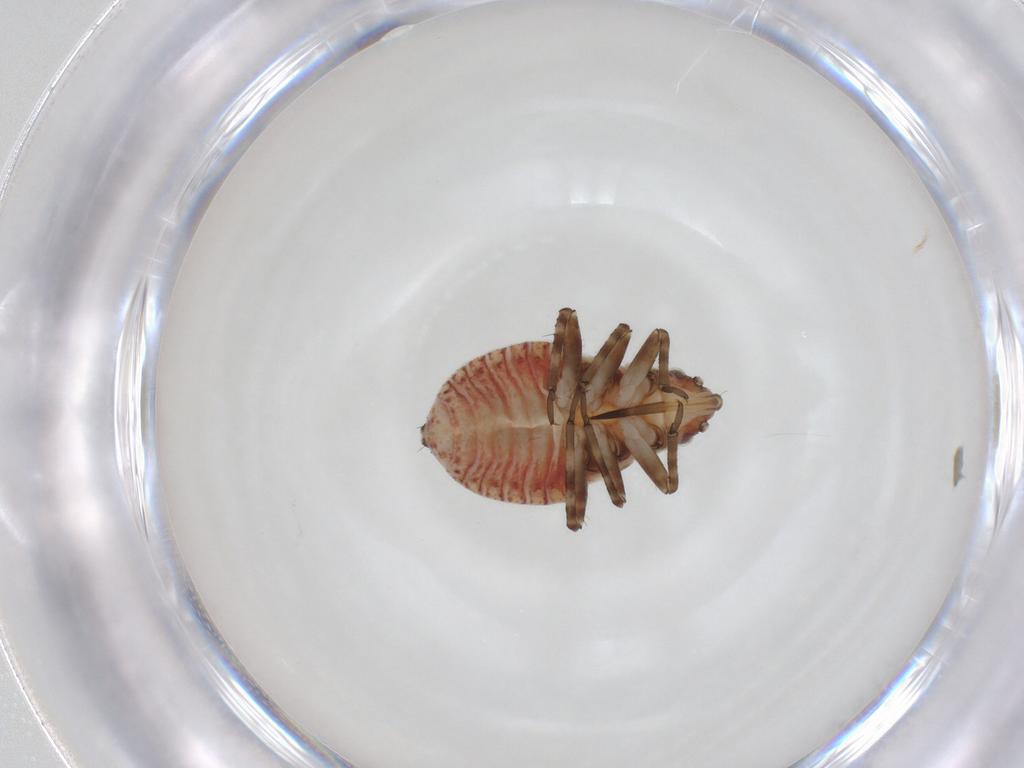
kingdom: Animalia
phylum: Arthropoda
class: Insecta
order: Hemiptera
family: Miridae
